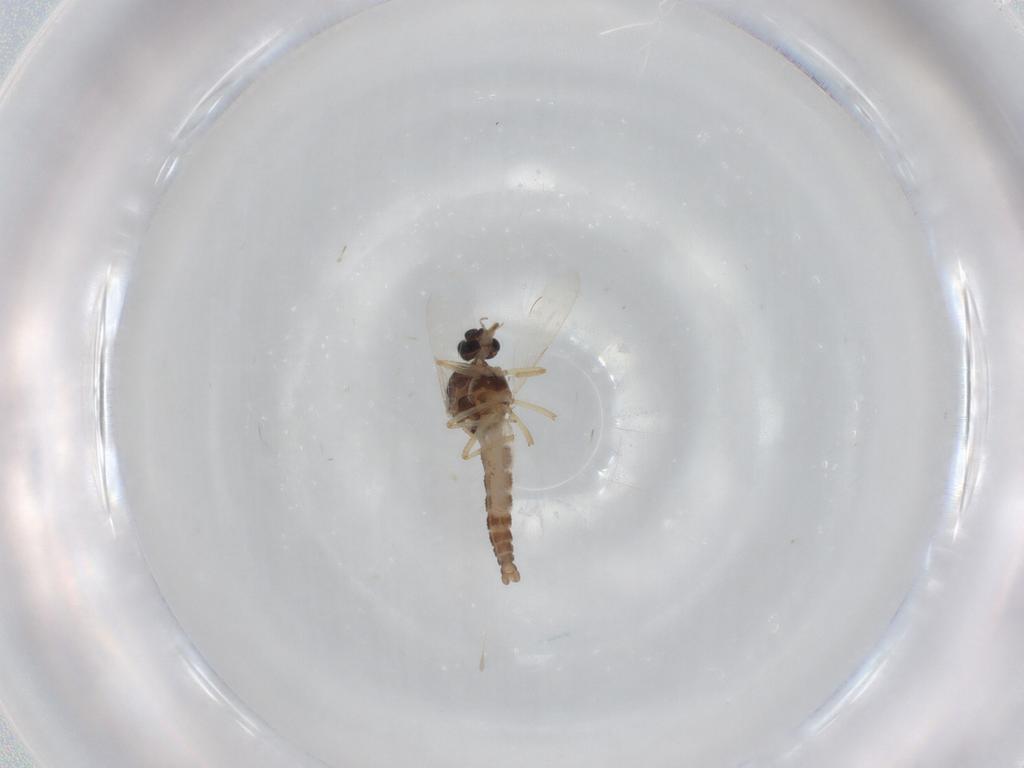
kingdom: Animalia
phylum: Arthropoda
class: Insecta
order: Diptera
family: Ceratopogonidae
